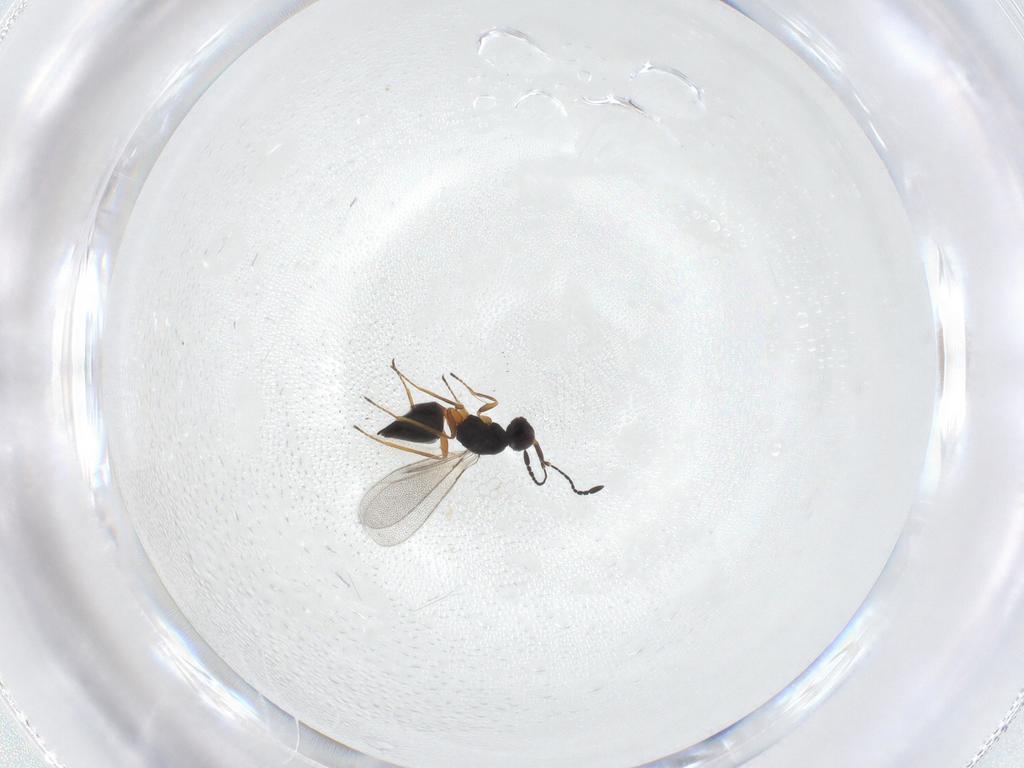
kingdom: Animalia
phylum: Arthropoda
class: Insecta
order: Hymenoptera
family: Mymaridae
